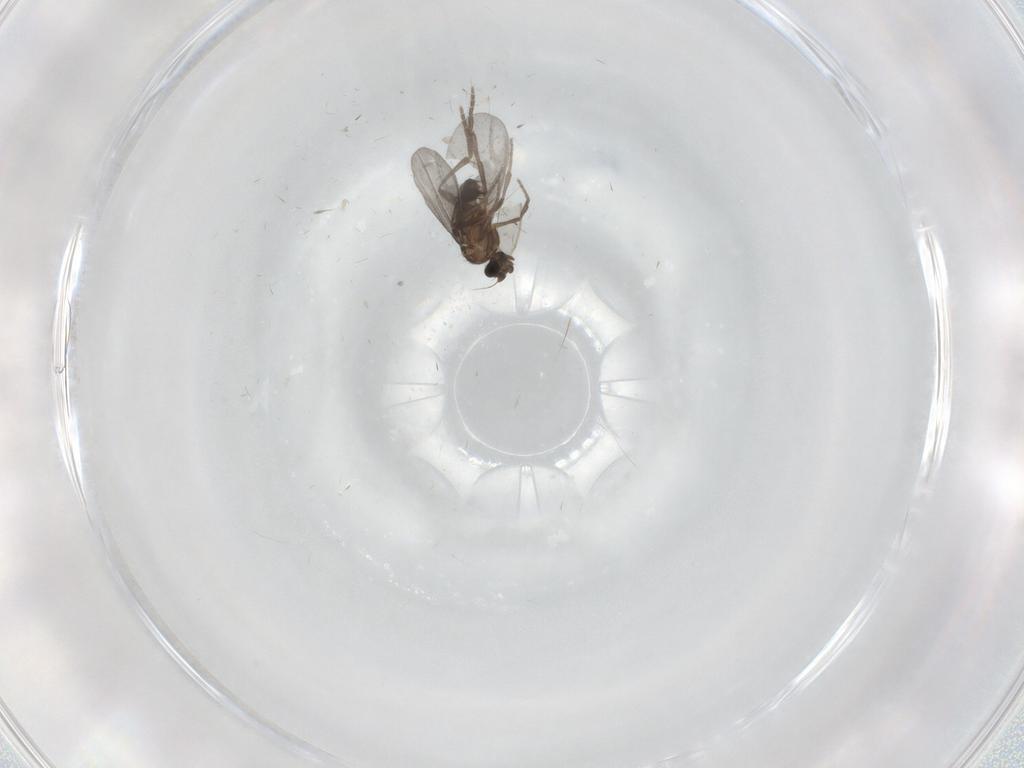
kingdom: Animalia
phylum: Arthropoda
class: Insecta
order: Diptera
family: Phoridae
